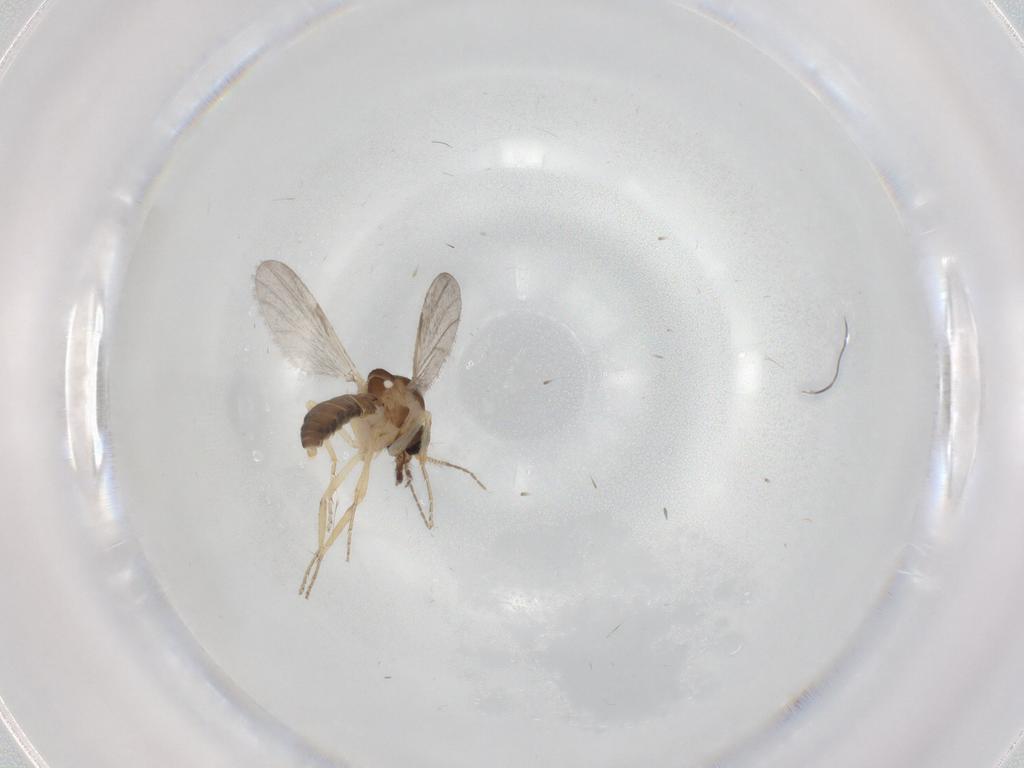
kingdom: Animalia
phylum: Arthropoda
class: Insecta
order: Diptera
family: Ceratopogonidae
